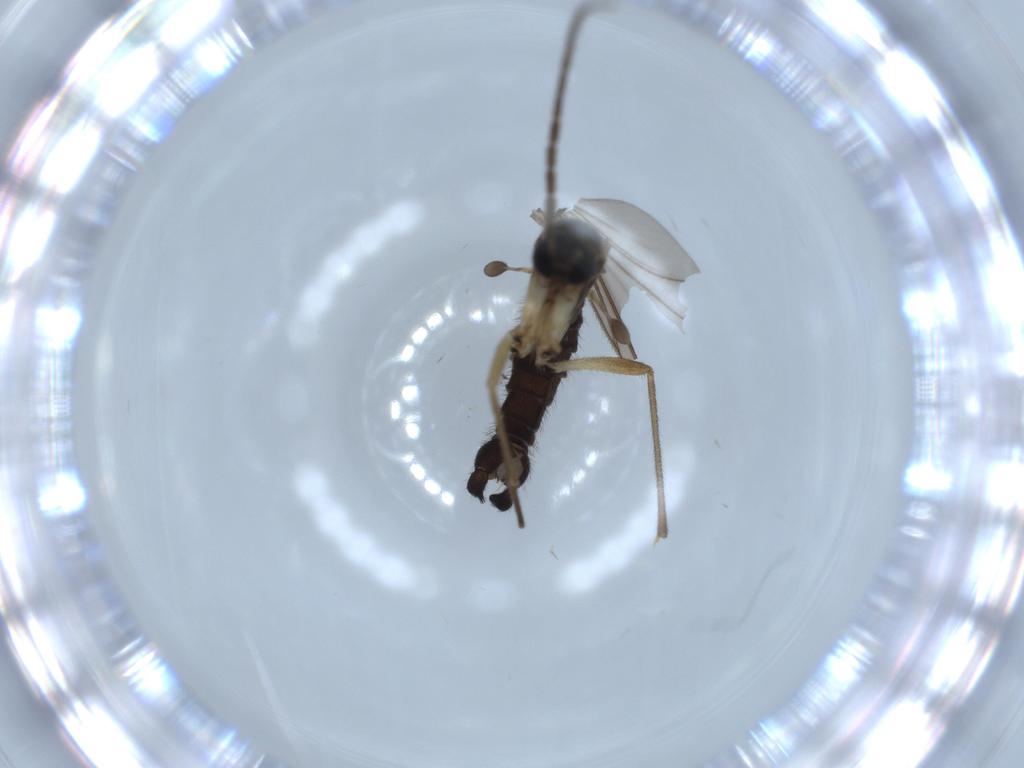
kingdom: Animalia
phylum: Arthropoda
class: Insecta
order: Diptera
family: Sciaridae
